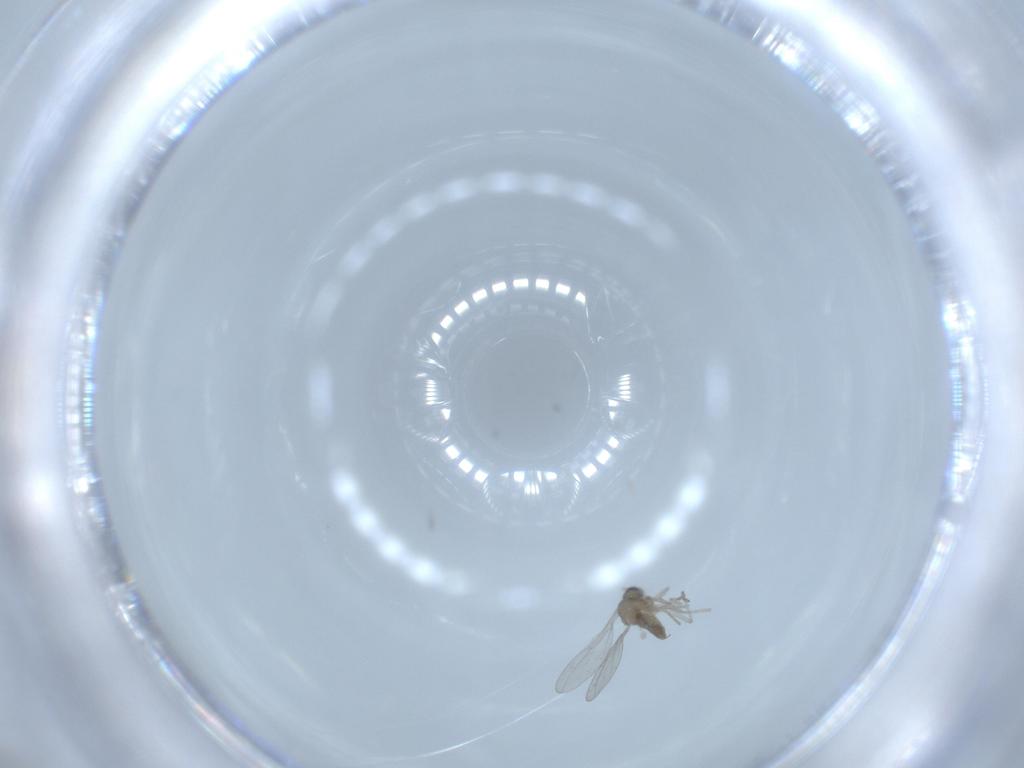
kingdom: Animalia
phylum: Arthropoda
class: Insecta
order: Diptera
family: Cecidomyiidae
